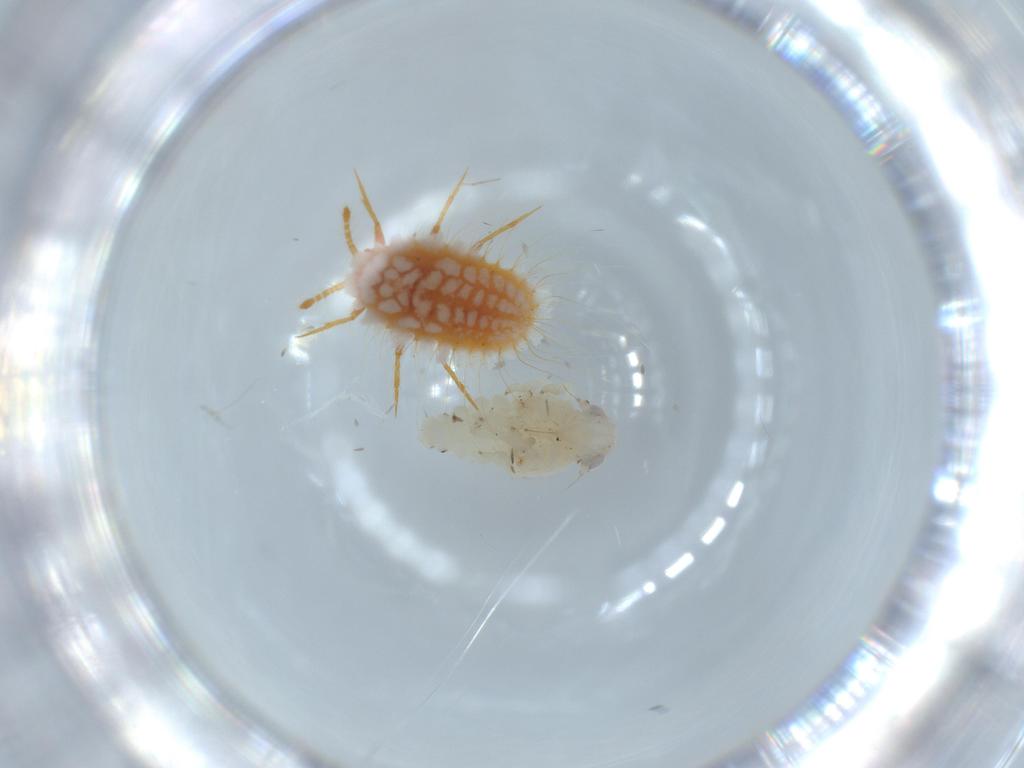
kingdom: Animalia
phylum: Arthropoda
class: Insecta
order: Diptera
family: Chironomidae
